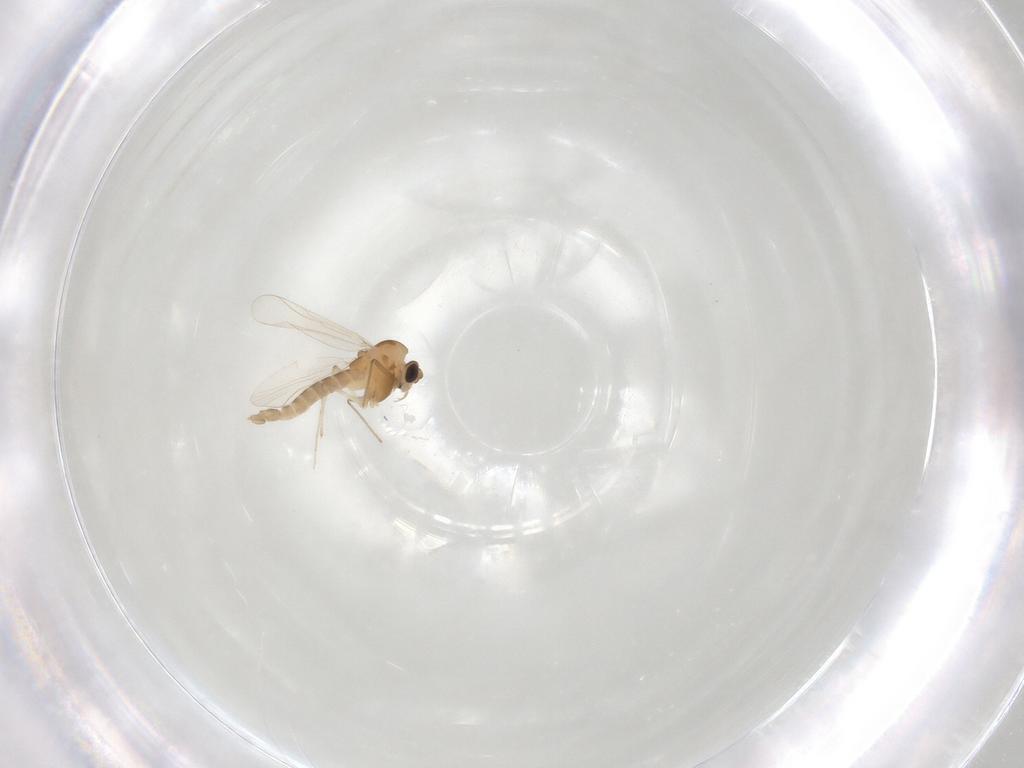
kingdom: Animalia
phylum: Arthropoda
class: Insecta
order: Diptera
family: Chironomidae
